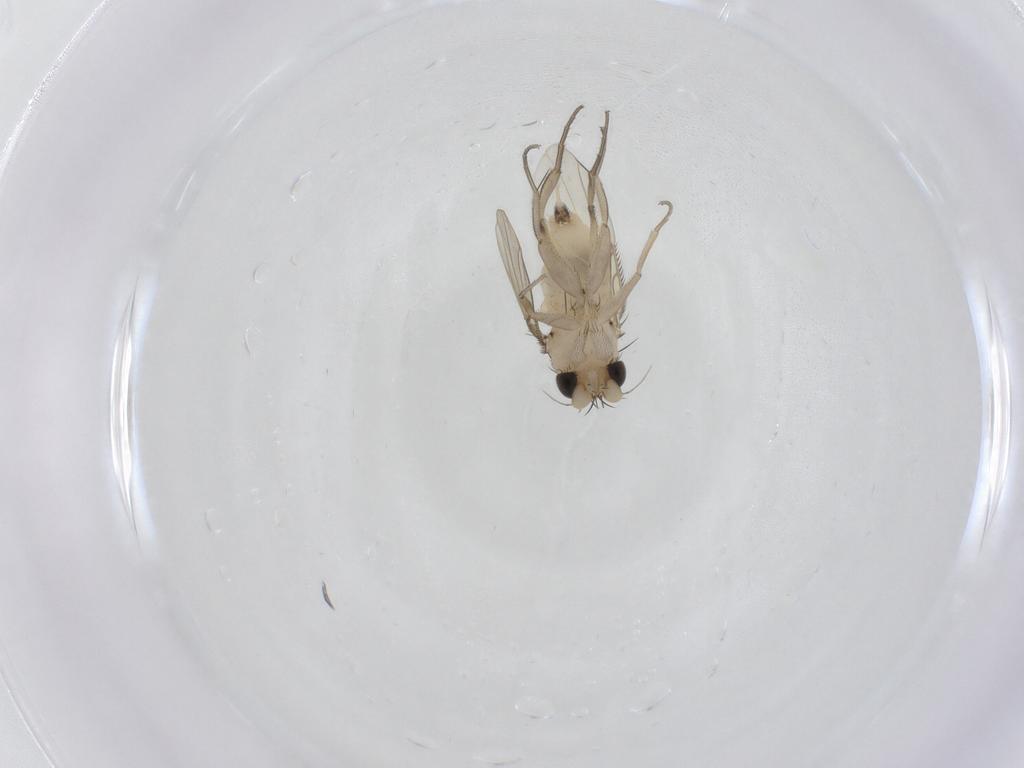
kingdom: Animalia
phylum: Arthropoda
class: Insecta
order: Diptera
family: Phoridae
